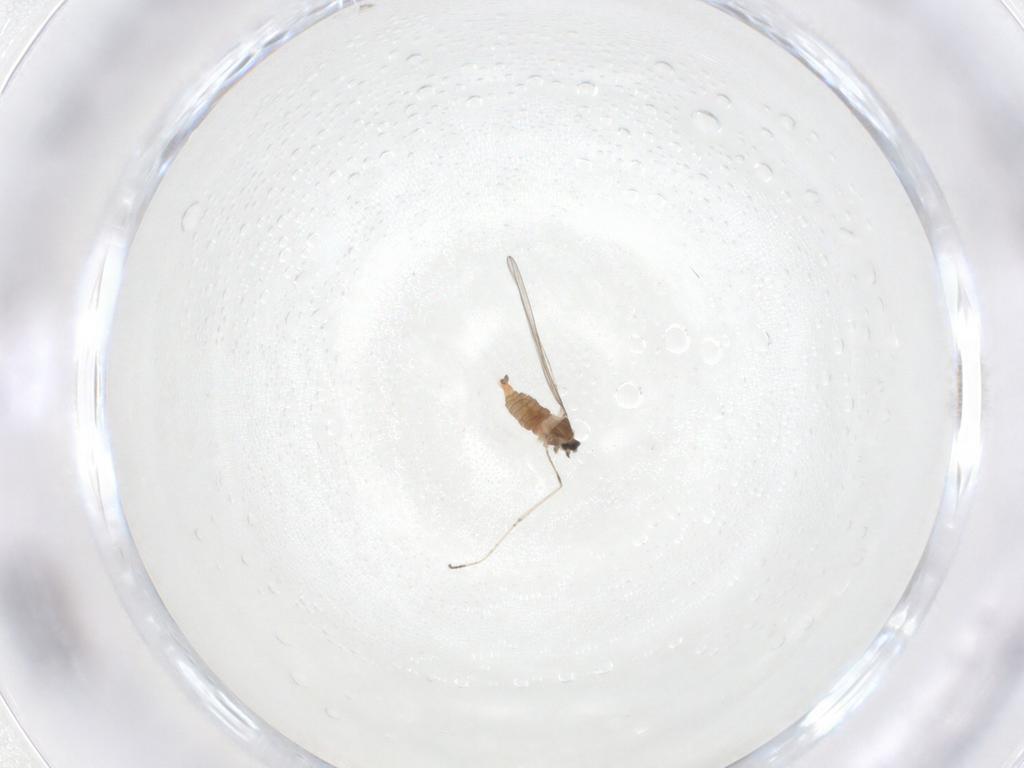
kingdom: Animalia
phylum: Arthropoda
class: Insecta
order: Diptera
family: Cecidomyiidae
